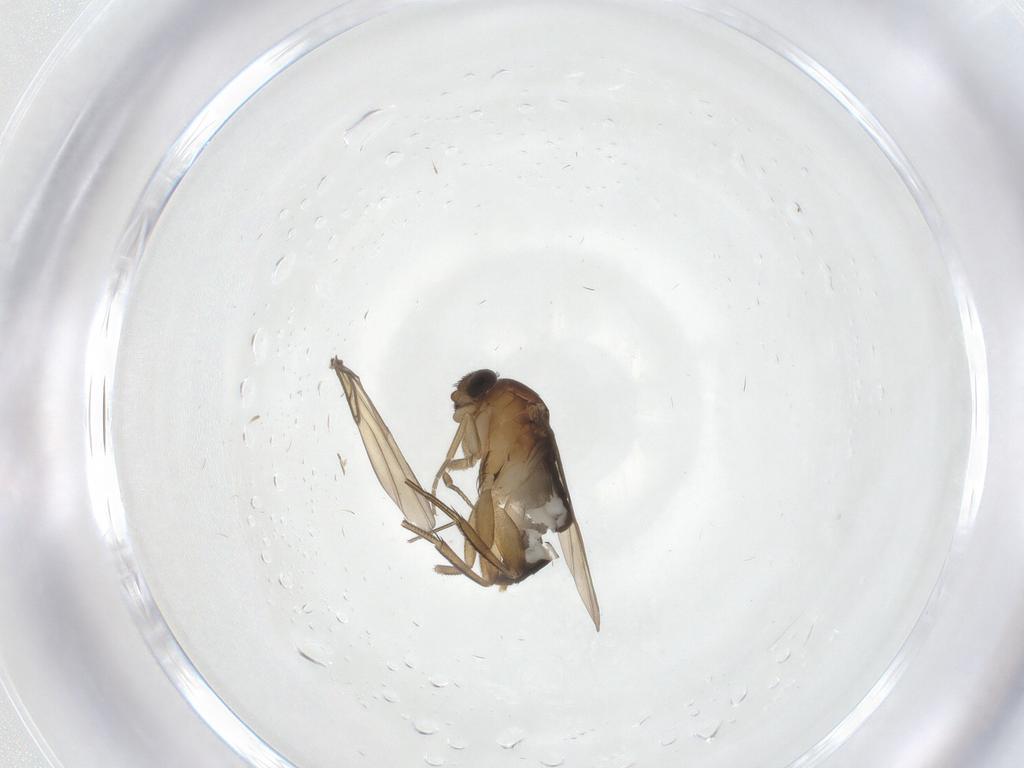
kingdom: Animalia
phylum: Arthropoda
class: Insecta
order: Diptera
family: Phoridae
